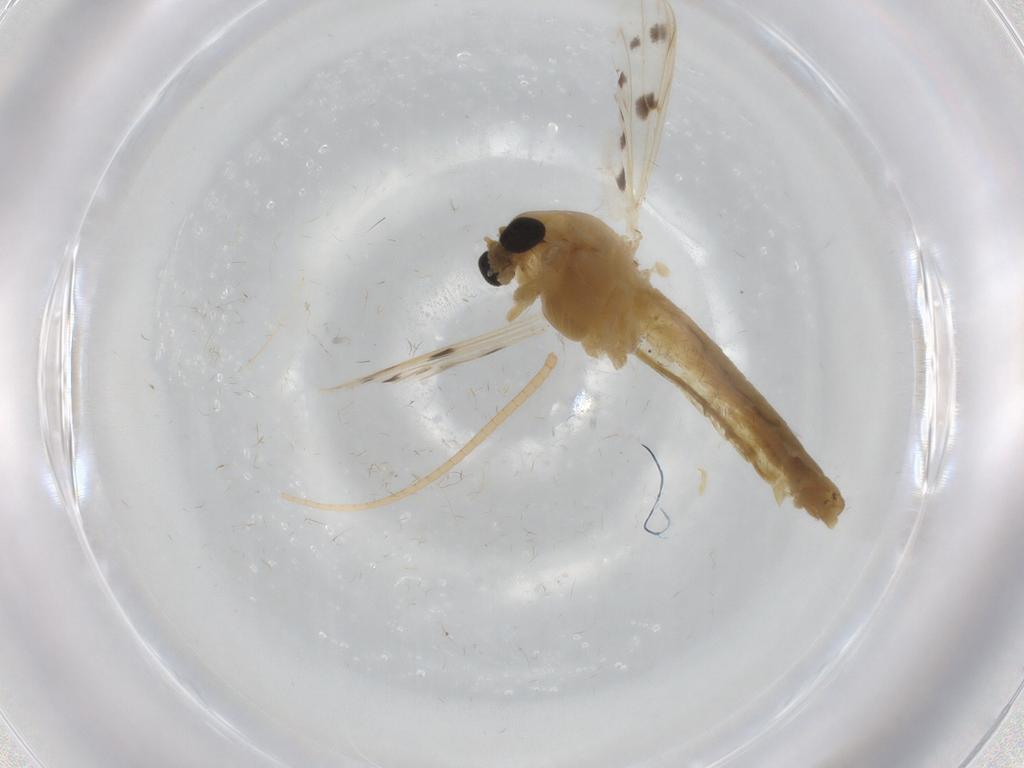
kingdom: Animalia
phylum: Arthropoda
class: Insecta
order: Diptera
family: Chironomidae
